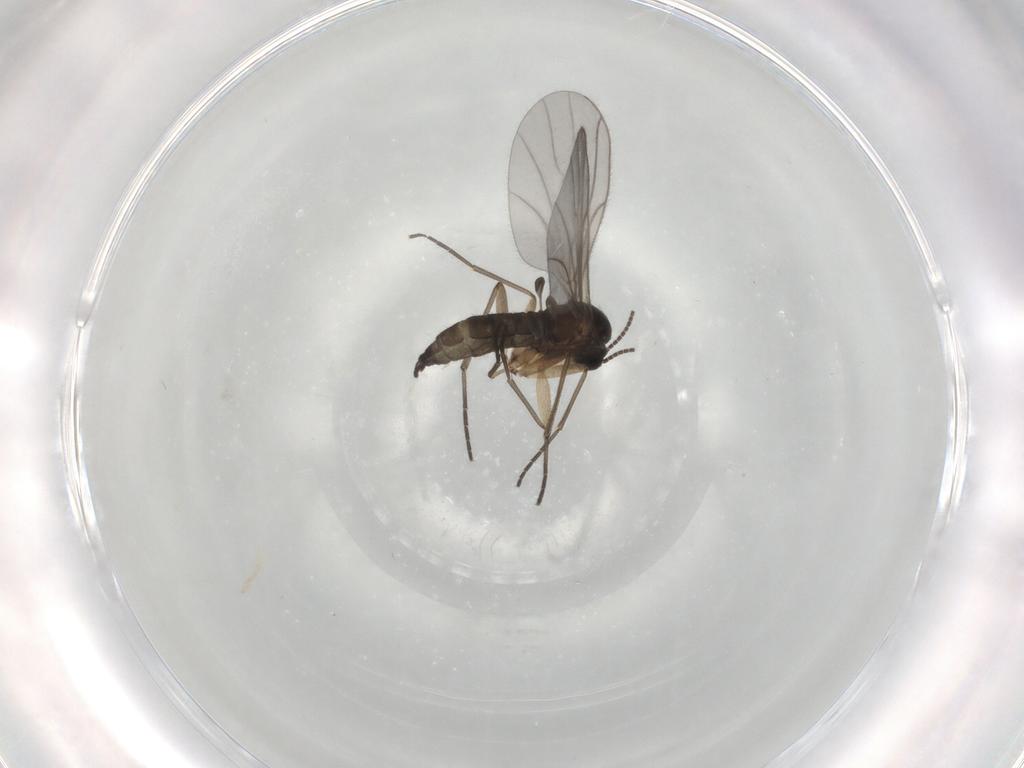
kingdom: Animalia
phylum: Arthropoda
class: Insecta
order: Diptera
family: Sciaridae
